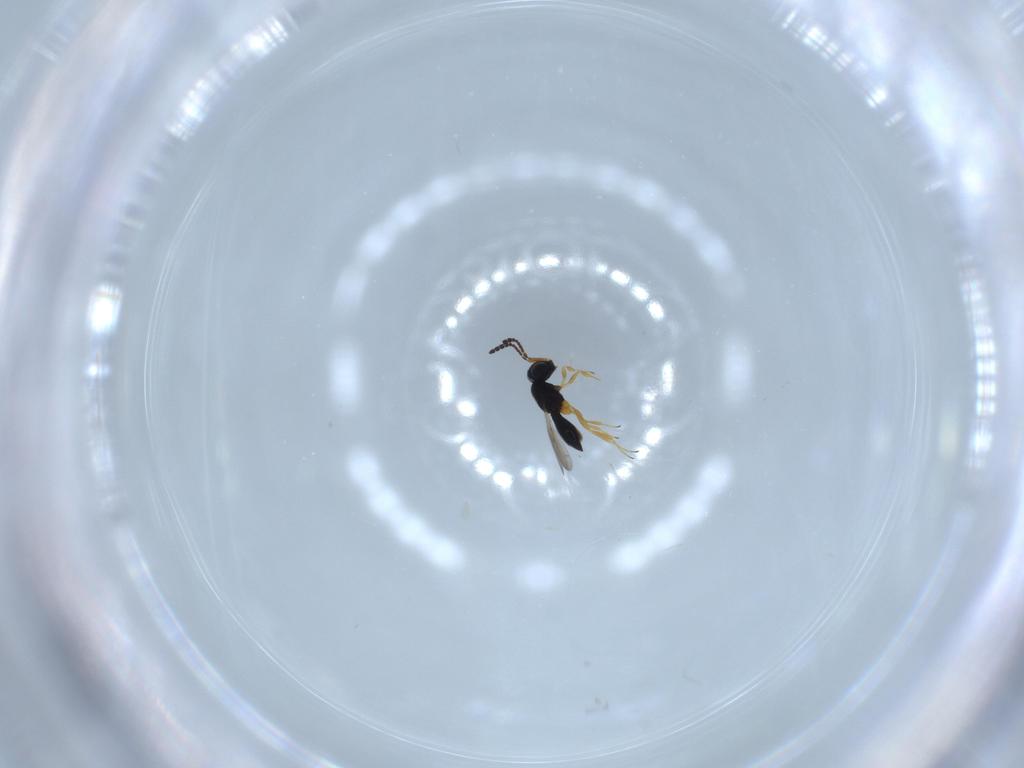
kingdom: Animalia
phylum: Arthropoda
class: Insecta
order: Hymenoptera
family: Scelionidae
